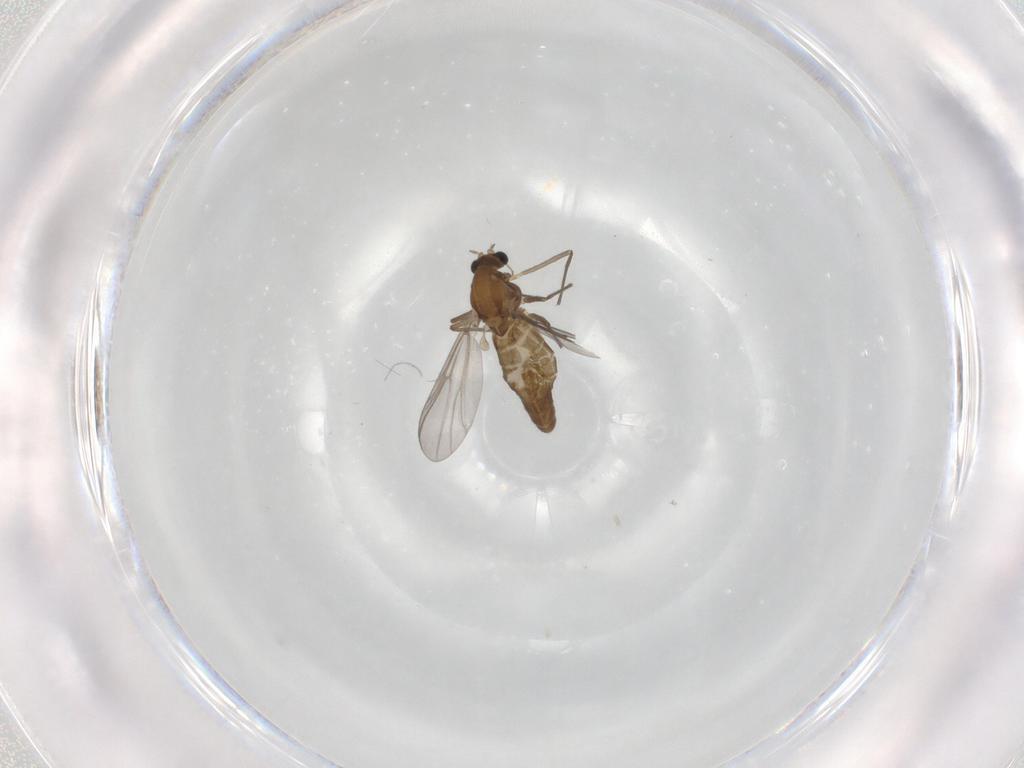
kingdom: Animalia
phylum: Arthropoda
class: Insecta
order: Diptera
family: Chironomidae
